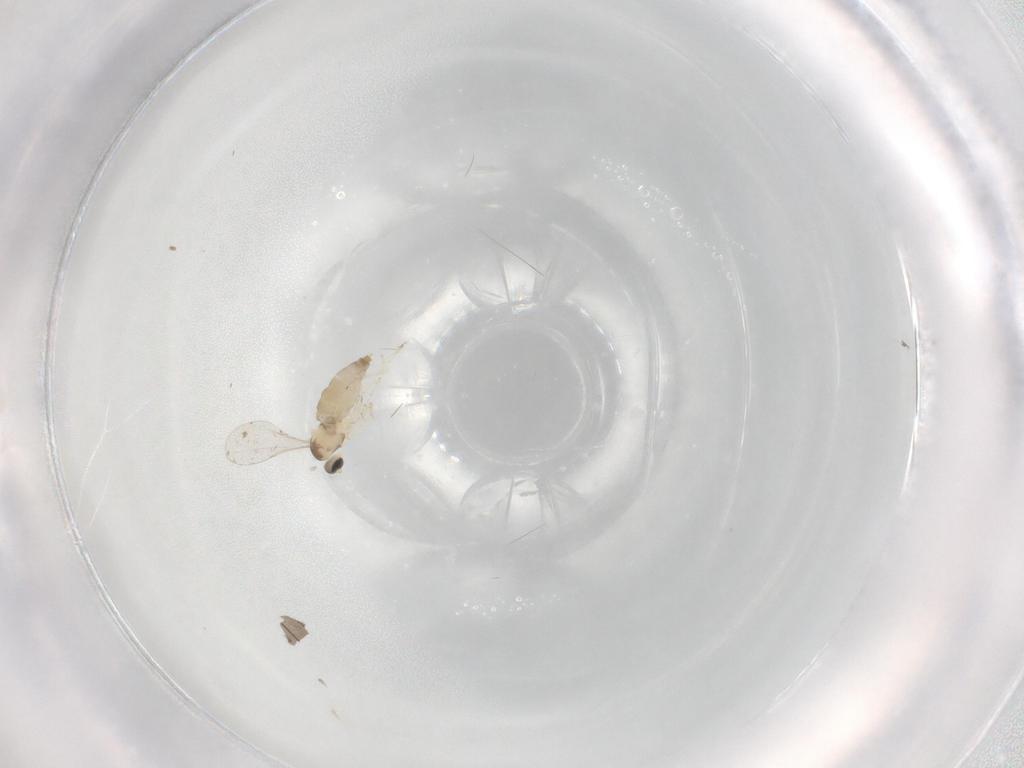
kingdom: Animalia
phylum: Arthropoda
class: Insecta
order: Diptera
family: Chironomidae
